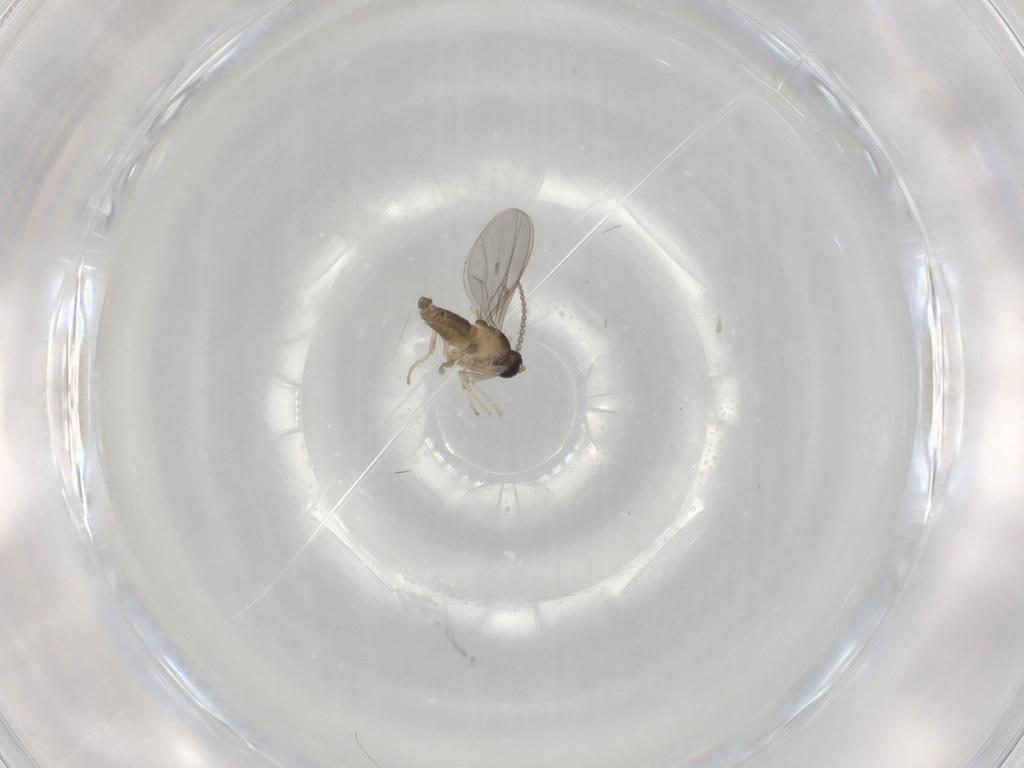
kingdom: Animalia
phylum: Arthropoda
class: Insecta
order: Diptera
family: Cecidomyiidae
